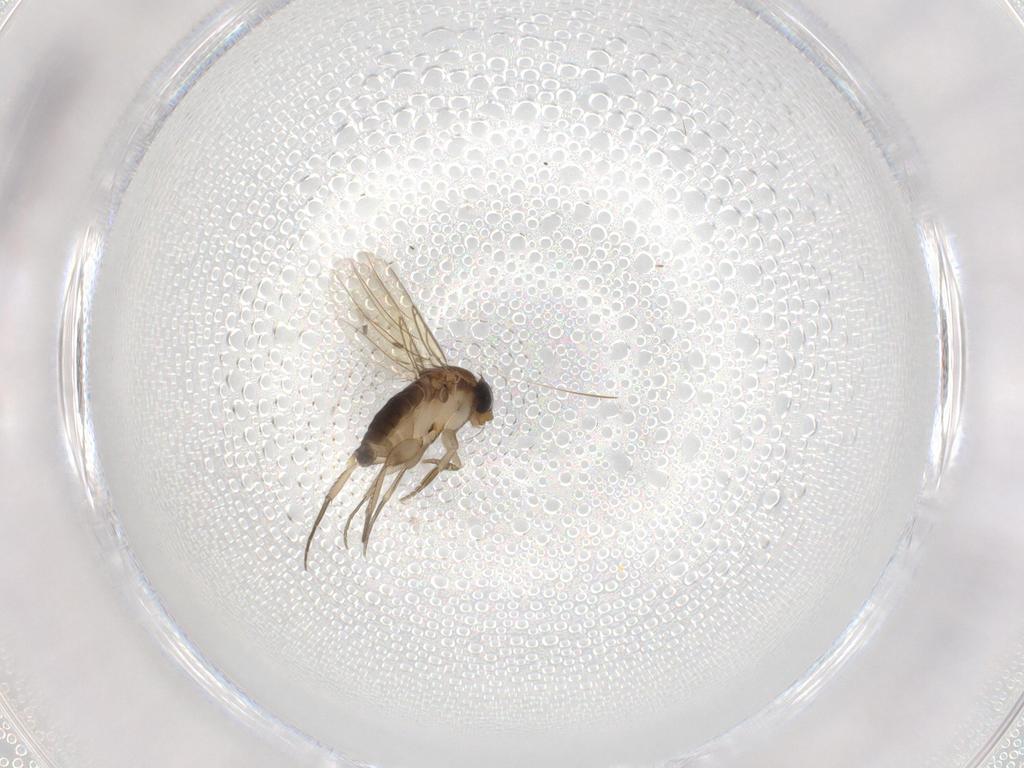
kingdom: Animalia
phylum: Arthropoda
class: Insecta
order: Diptera
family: Phoridae
